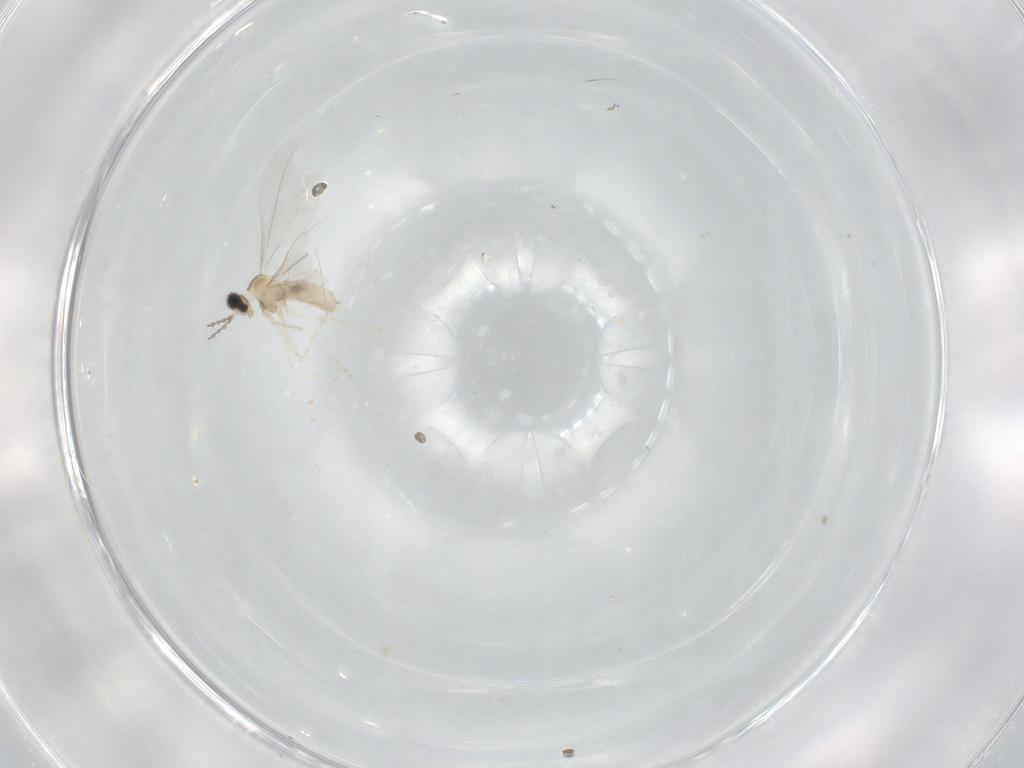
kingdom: Animalia
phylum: Arthropoda
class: Insecta
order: Diptera
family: Cecidomyiidae
